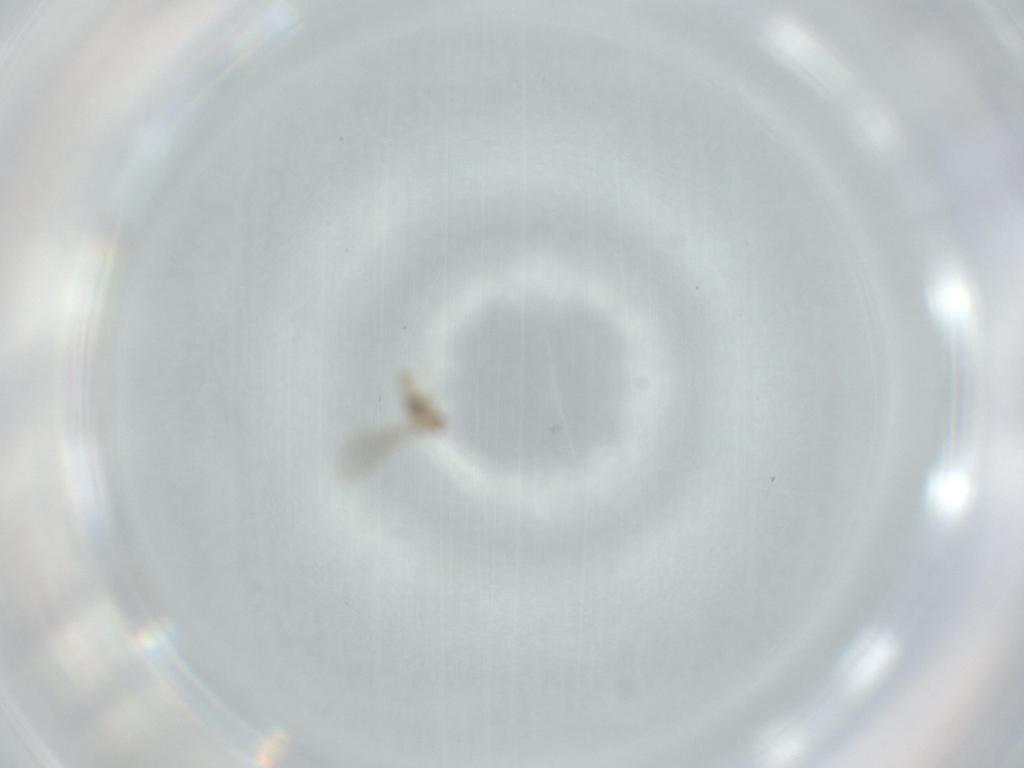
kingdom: Animalia
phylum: Arthropoda
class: Insecta
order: Diptera
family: Cecidomyiidae
